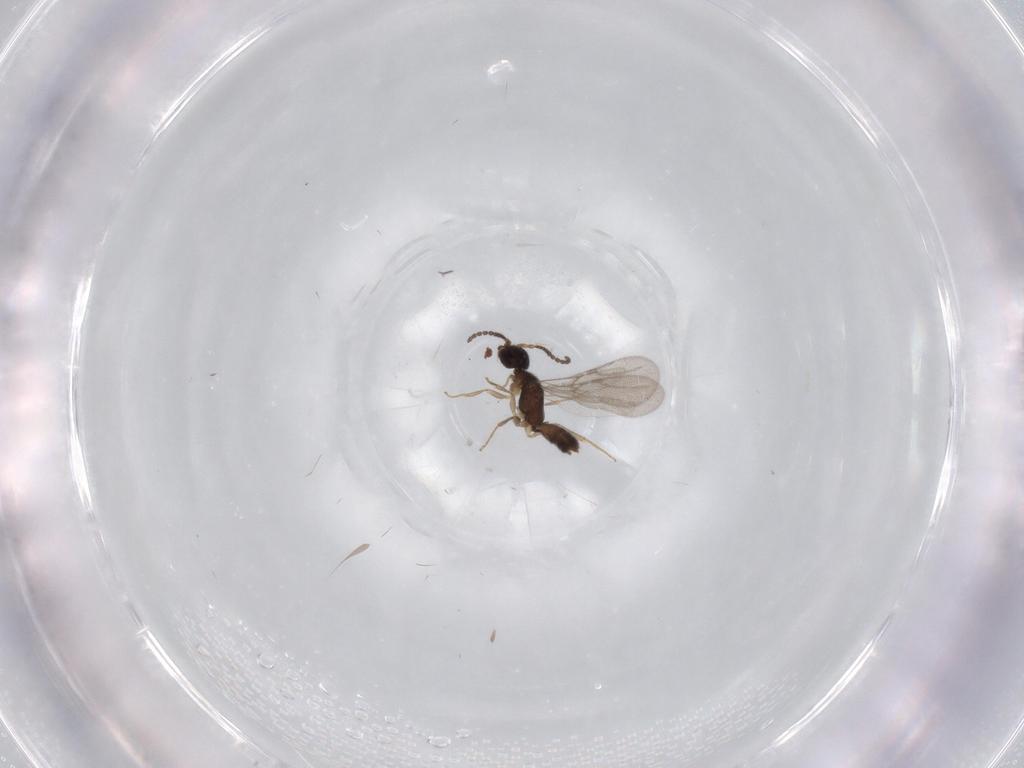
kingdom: Animalia
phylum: Arthropoda
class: Insecta
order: Hymenoptera
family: Bethylidae
